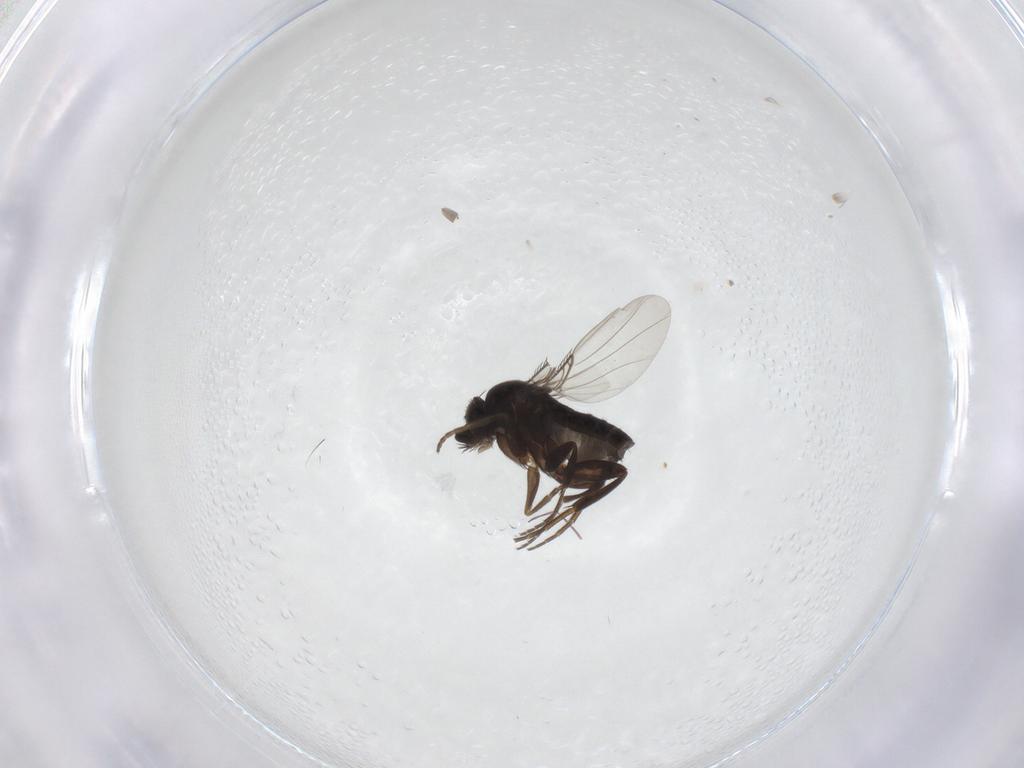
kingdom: Animalia
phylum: Arthropoda
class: Insecta
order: Diptera
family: Phoridae
